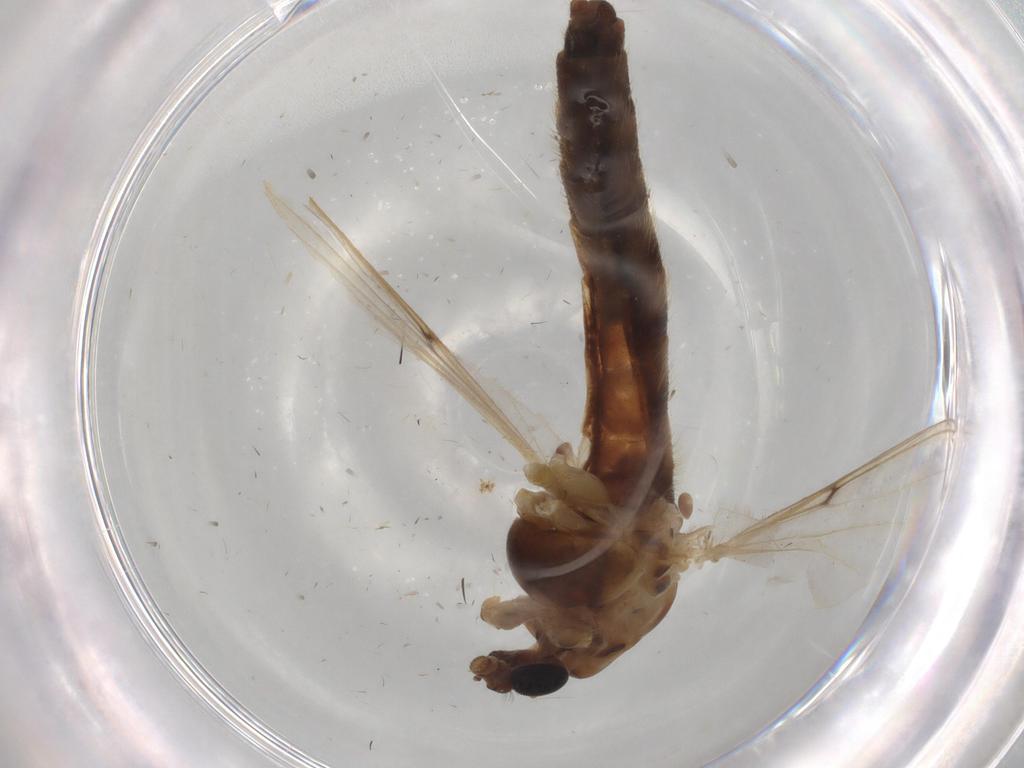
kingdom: Animalia
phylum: Arthropoda
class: Insecta
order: Diptera
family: Chironomidae
